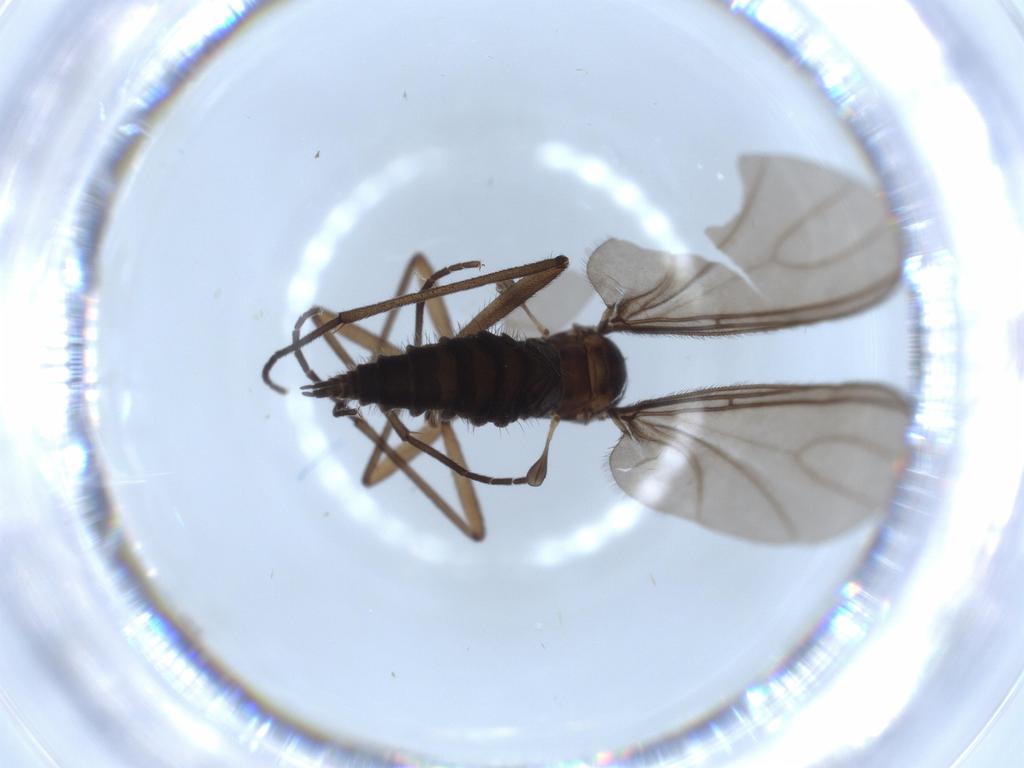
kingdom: Animalia
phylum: Arthropoda
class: Insecta
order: Diptera
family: Sciaridae
